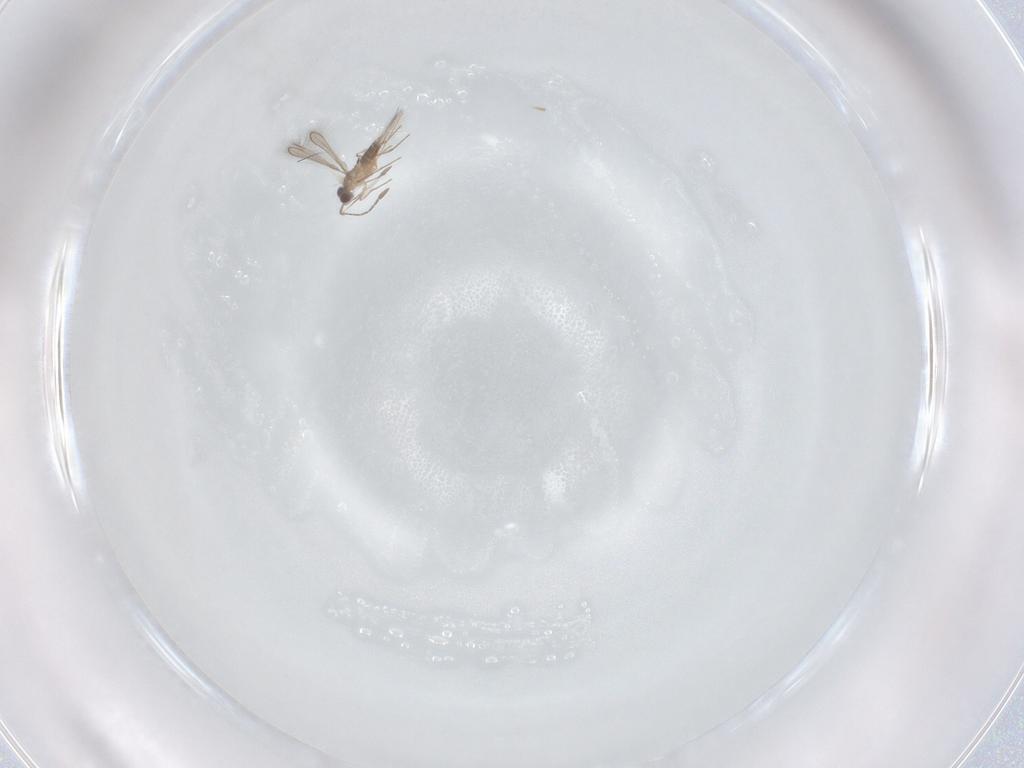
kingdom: Animalia
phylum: Arthropoda
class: Insecta
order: Hymenoptera
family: Mymaridae
